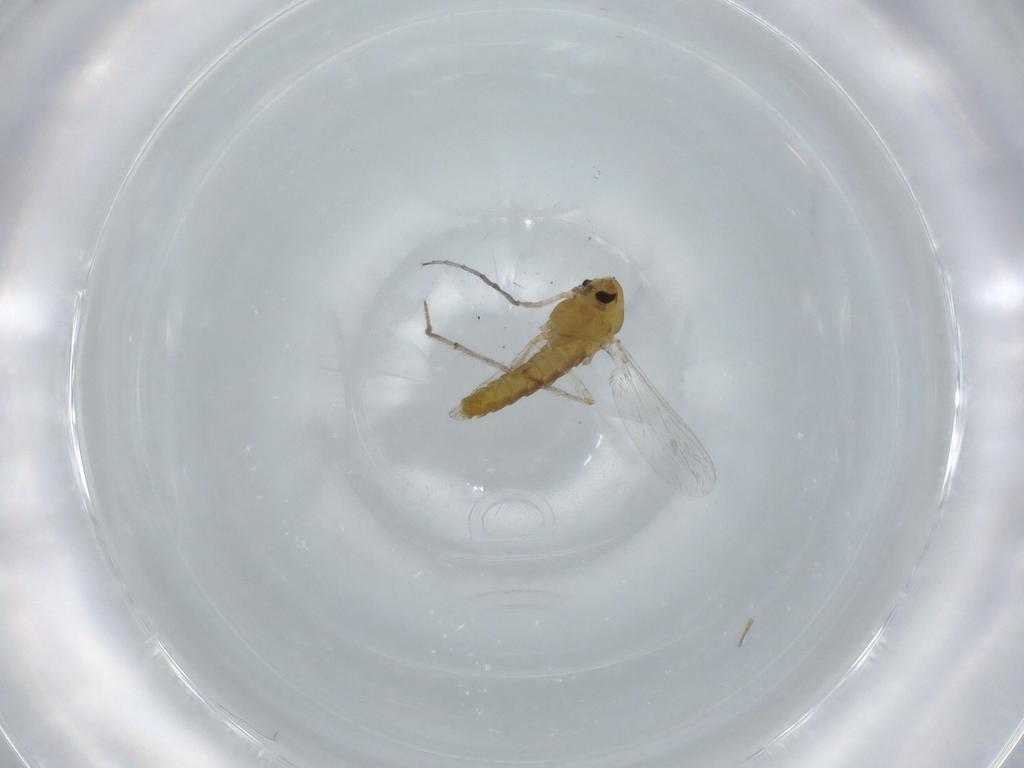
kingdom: Animalia
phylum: Arthropoda
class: Insecta
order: Diptera
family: Chironomidae
